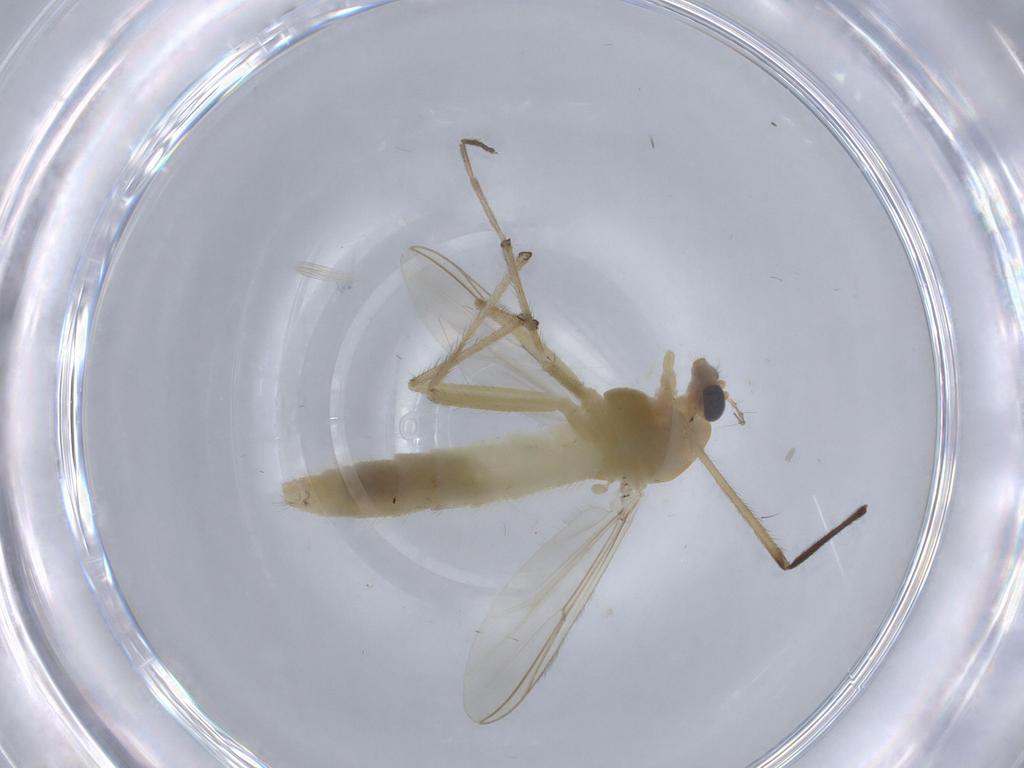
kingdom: Animalia
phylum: Arthropoda
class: Insecta
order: Diptera
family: Chironomidae
